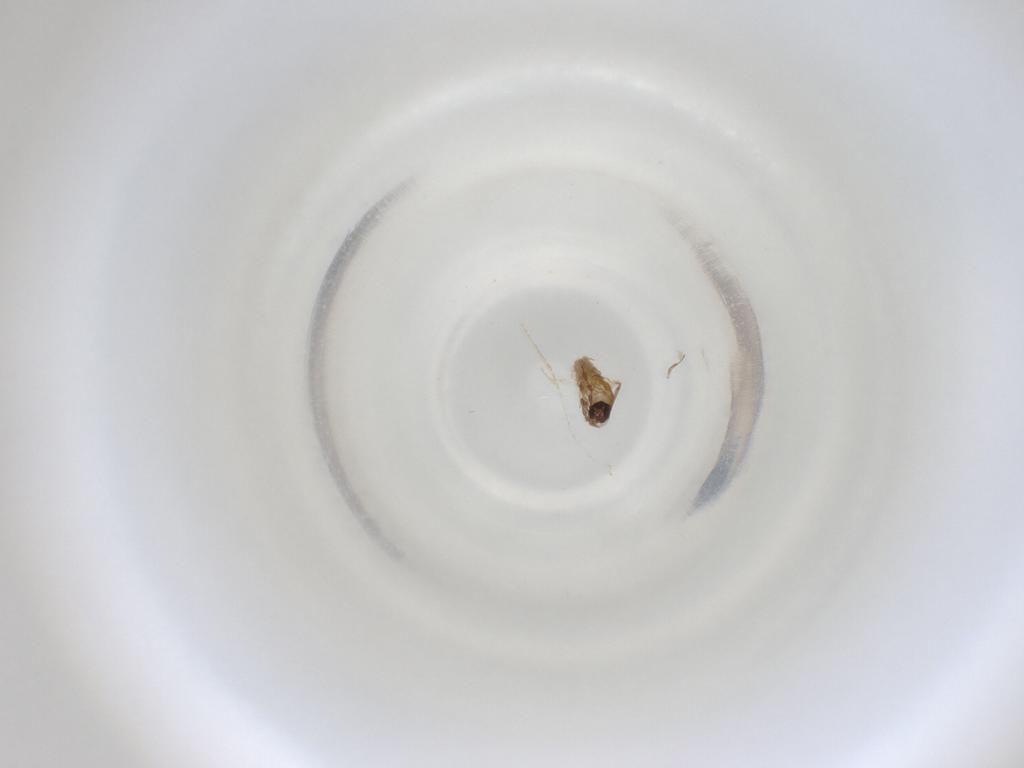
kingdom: Animalia
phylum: Arthropoda
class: Insecta
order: Diptera
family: Cecidomyiidae
